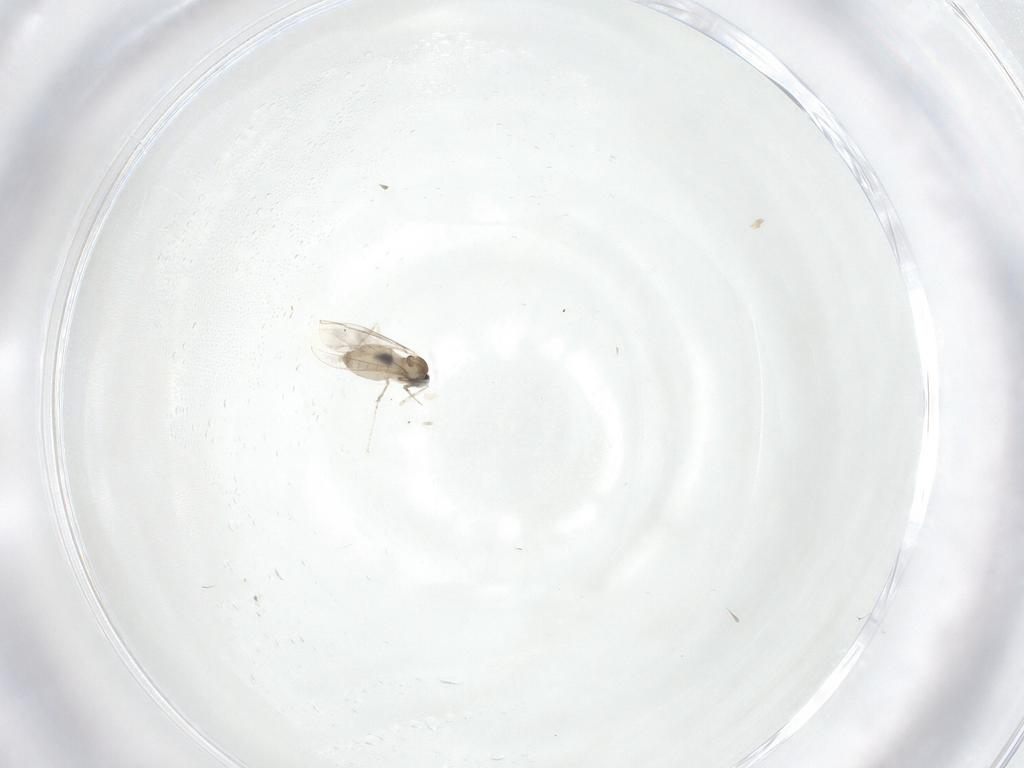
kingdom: Animalia
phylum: Arthropoda
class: Insecta
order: Diptera
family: Cecidomyiidae
